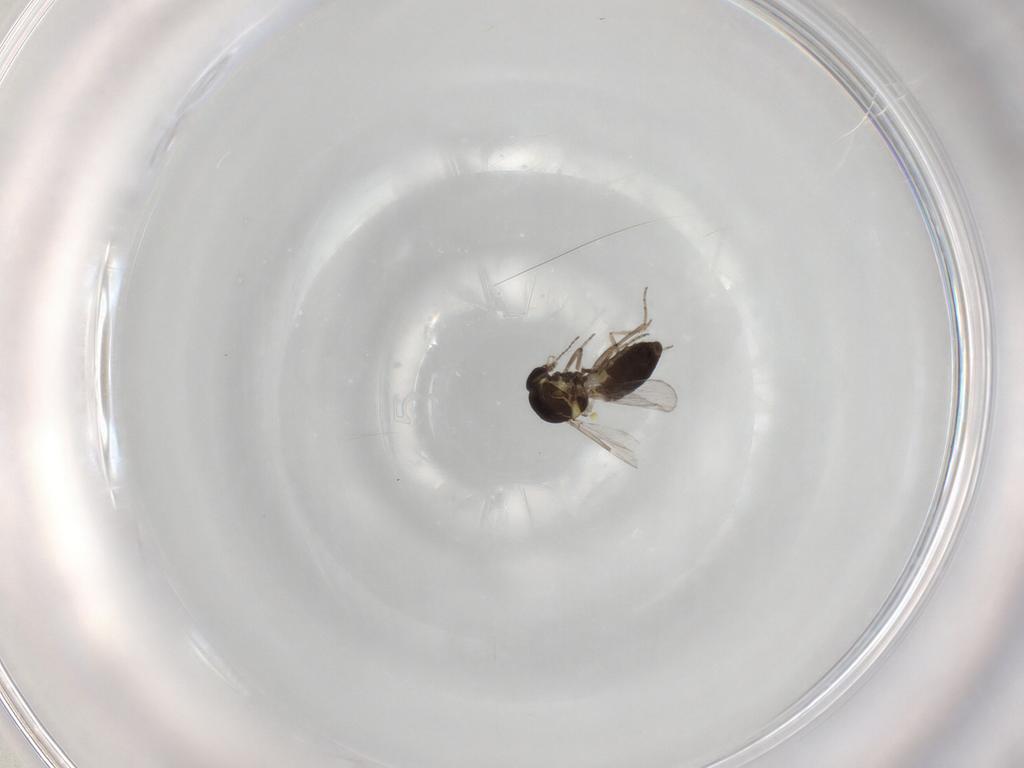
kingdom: Animalia
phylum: Arthropoda
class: Insecta
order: Diptera
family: Ceratopogonidae
